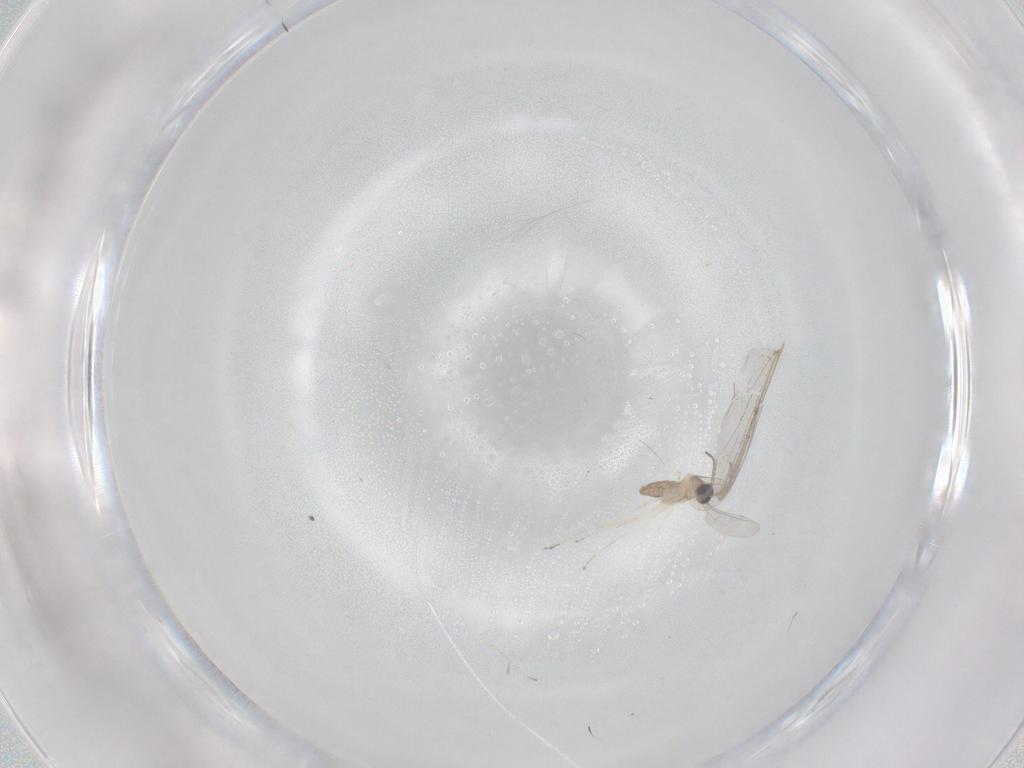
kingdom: Animalia
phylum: Arthropoda
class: Insecta
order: Diptera
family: Cecidomyiidae
